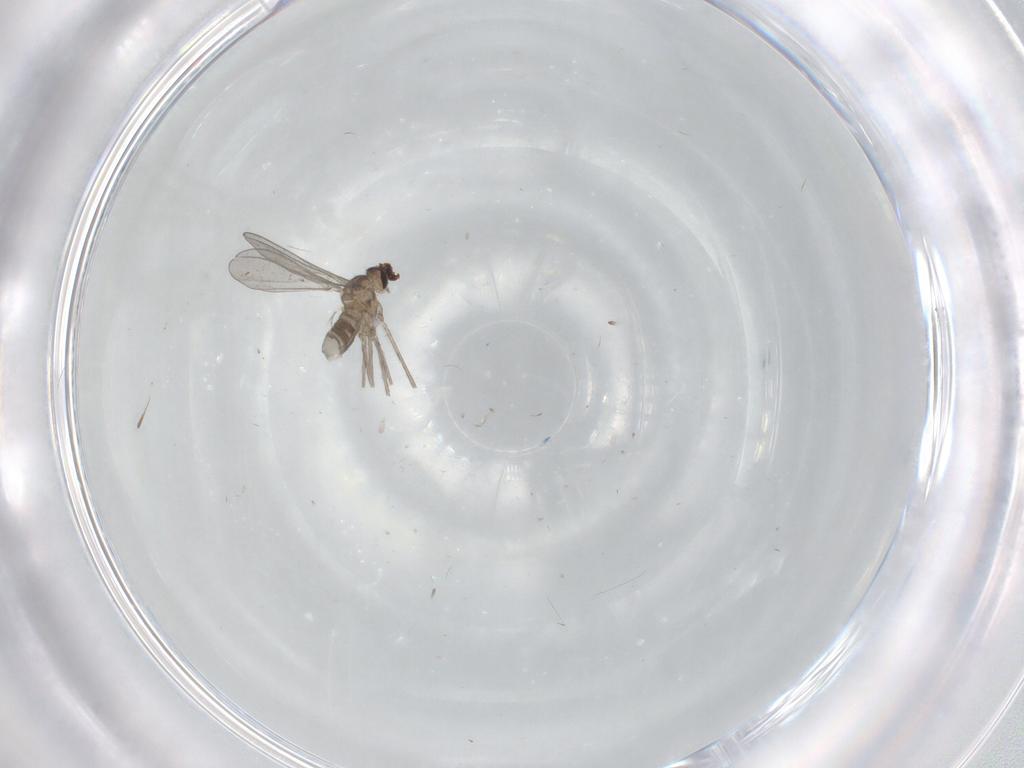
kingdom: Animalia
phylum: Arthropoda
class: Insecta
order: Diptera
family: Cecidomyiidae
